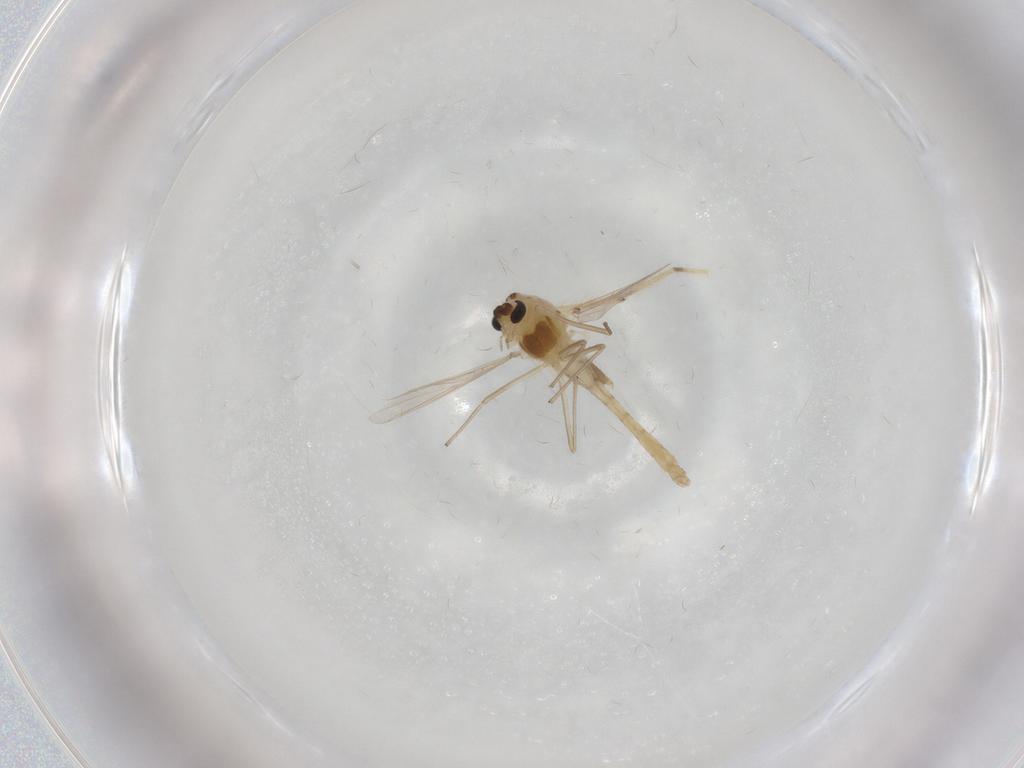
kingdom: Animalia
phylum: Arthropoda
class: Insecta
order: Diptera
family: Chironomidae
